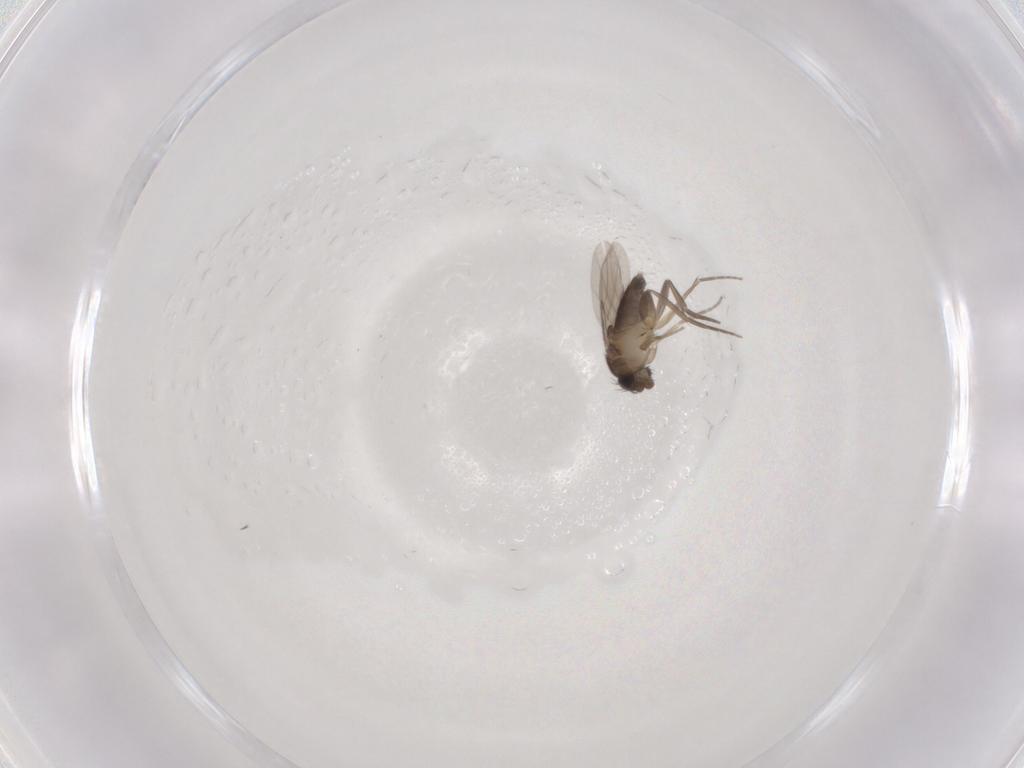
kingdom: Animalia
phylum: Arthropoda
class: Insecta
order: Diptera
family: Phoridae
